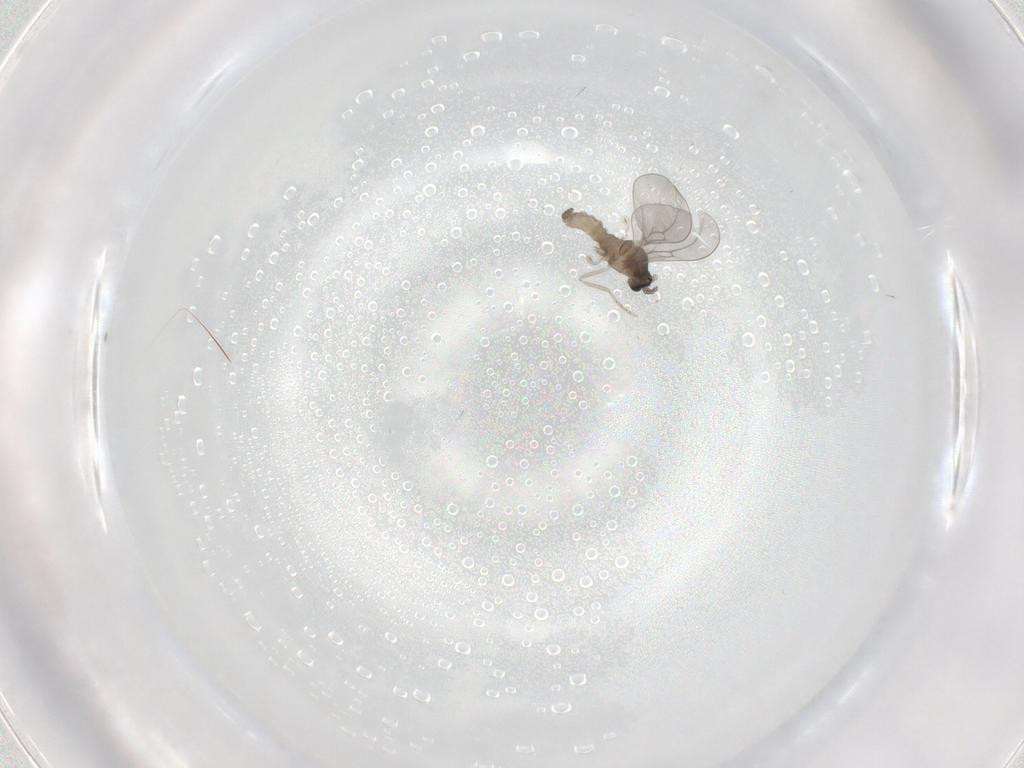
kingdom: Animalia
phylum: Arthropoda
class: Insecta
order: Diptera
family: Cecidomyiidae
